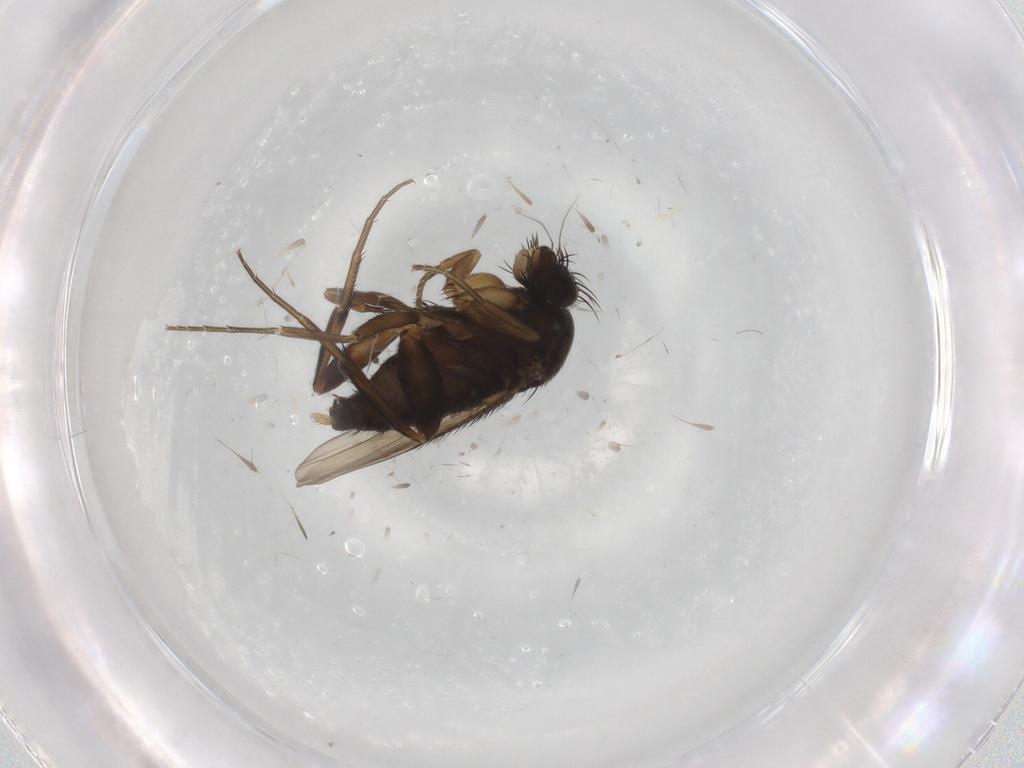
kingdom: Animalia
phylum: Arthropoda
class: Insecta
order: Diptera
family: Phoridae
